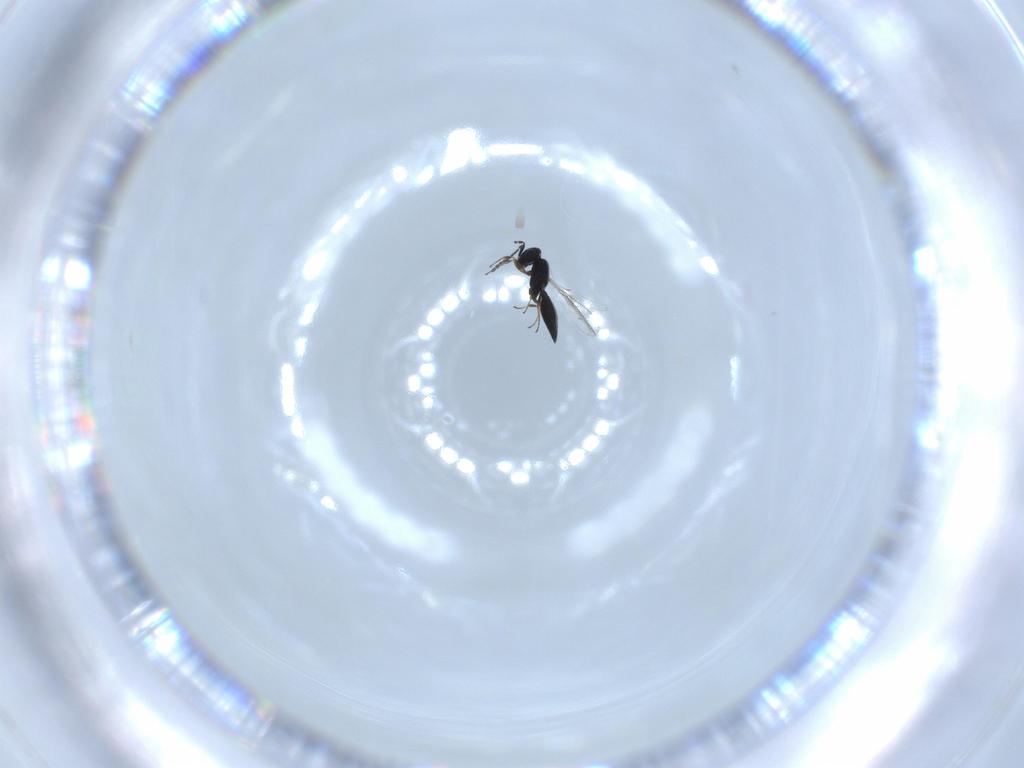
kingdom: Animalia
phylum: Arthropoda
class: Insecta
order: Hymenoptera
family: Scelionidae
